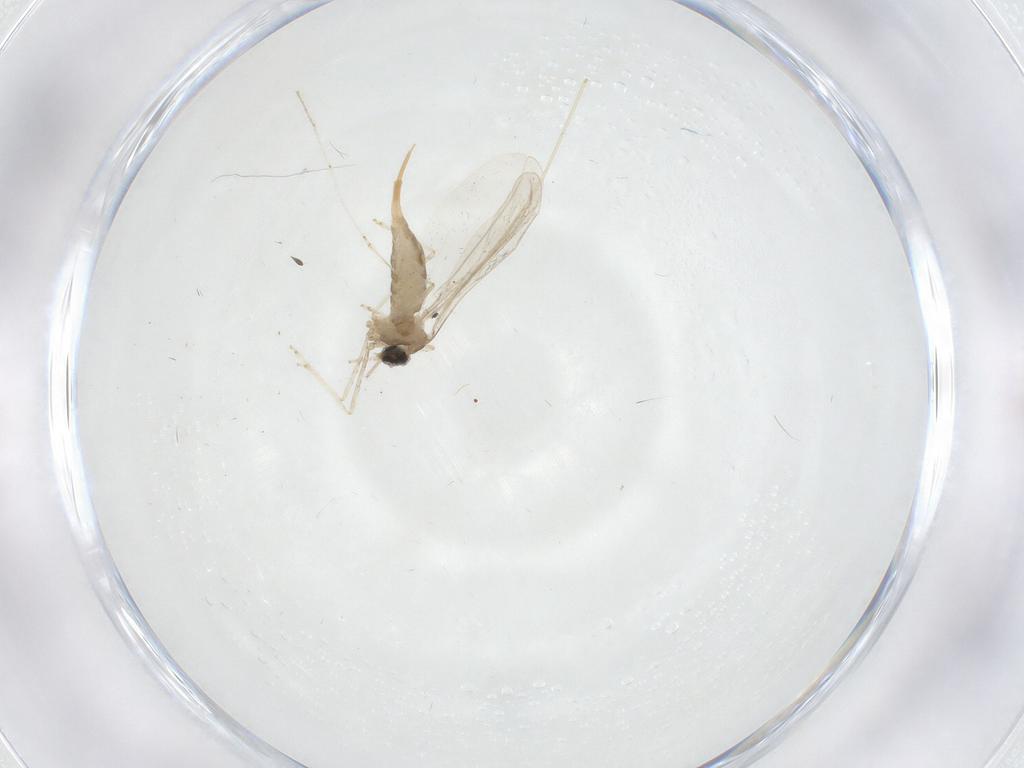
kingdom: Animalia
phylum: Arthropoda
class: Insecta
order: Diptera
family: Cecidomyiidae
